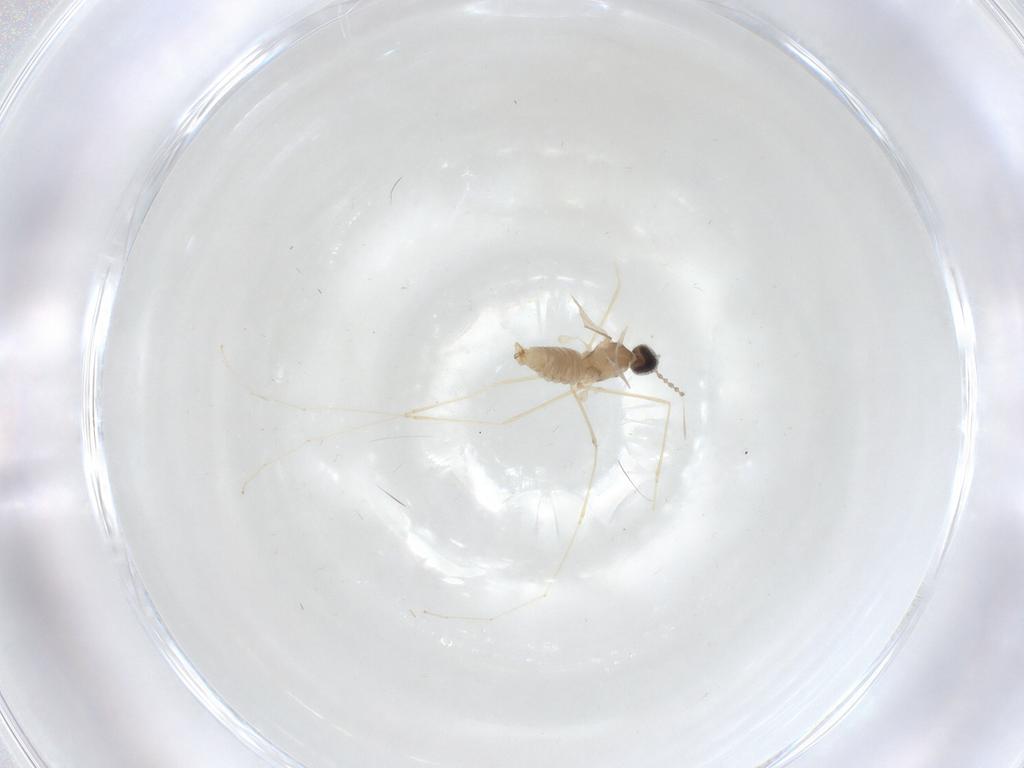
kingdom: Animalia
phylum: Arthropoda
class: Insecta
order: Diptera
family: Cecidomyiidae
